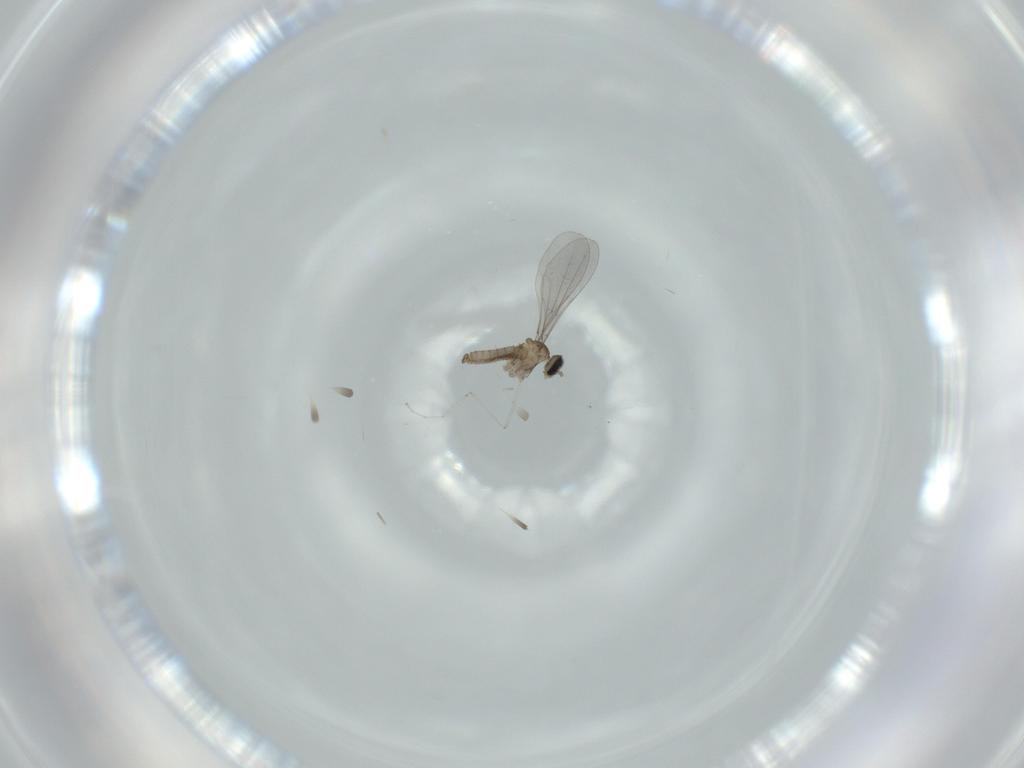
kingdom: Animalia
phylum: Arthropoda
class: Insecta
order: Diptera
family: Cecidomyiidae
